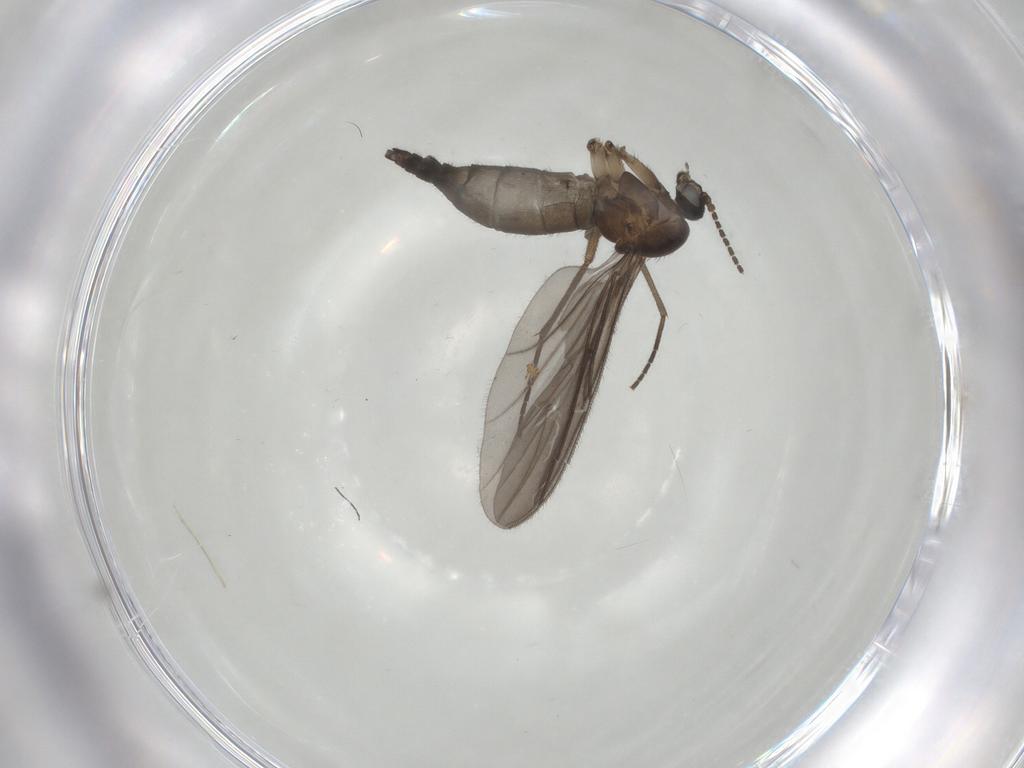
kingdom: Animalia
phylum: Arthropoda
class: Insecta
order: Diptera
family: Sciaridae
